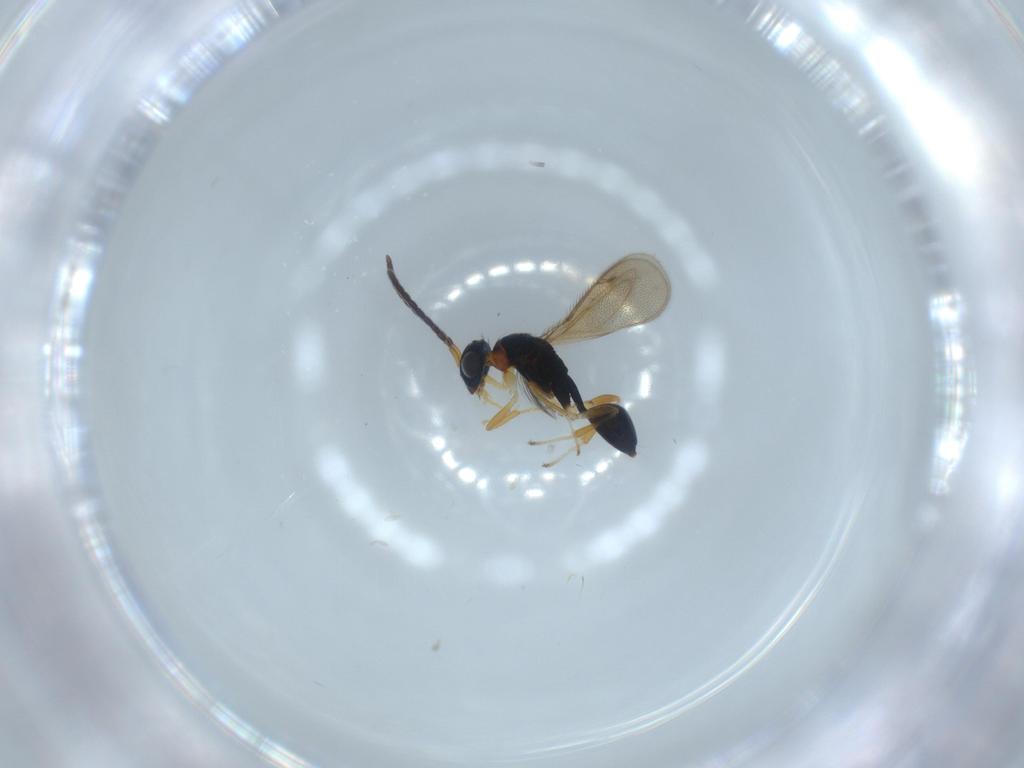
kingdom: Animalia
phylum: Arthropoda
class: Insecta
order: Hymenoptera
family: Diparidae
